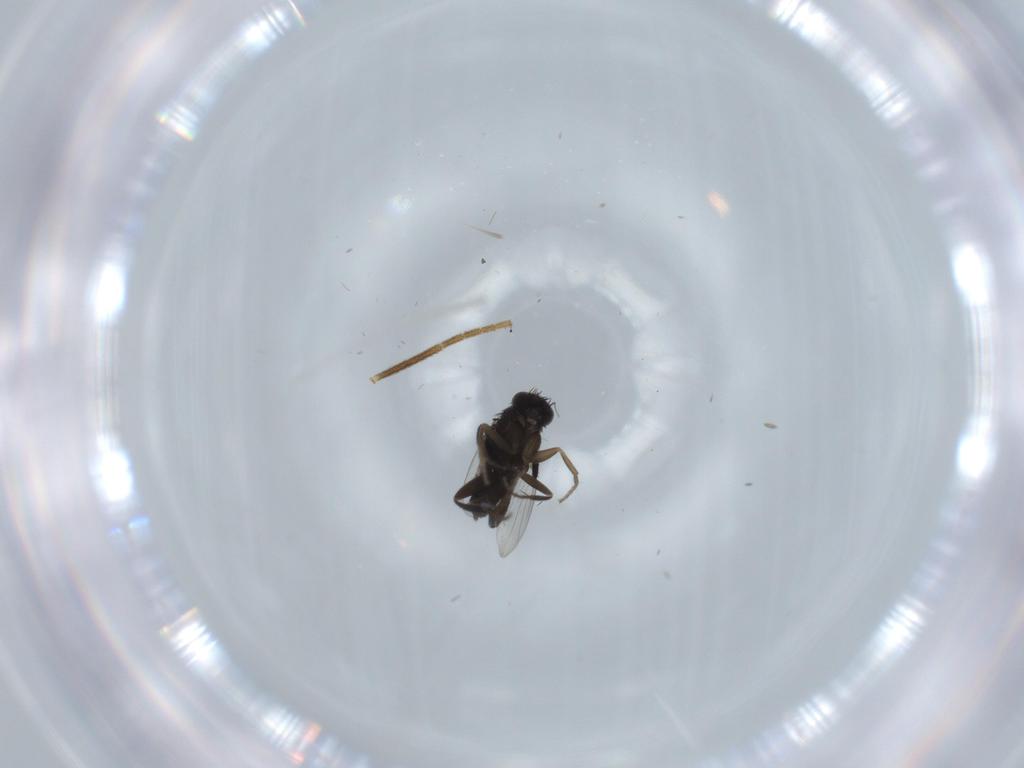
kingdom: Animalia
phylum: Arthropoda
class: Insecta
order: Diptera
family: Phoridae
